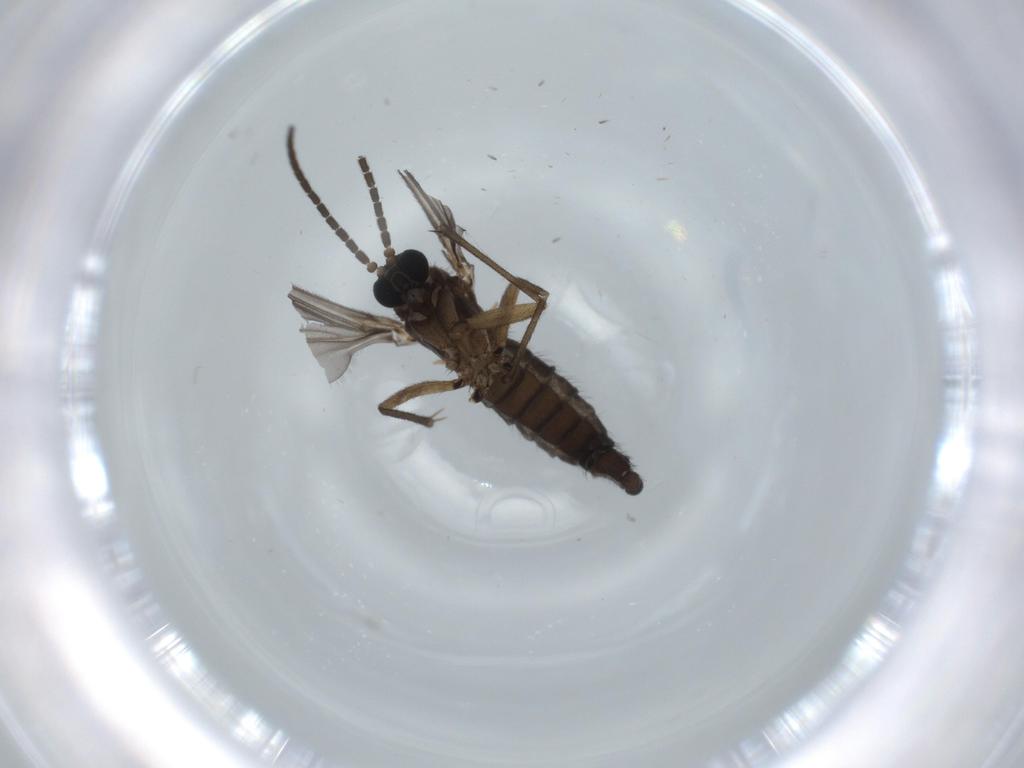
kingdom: Animalia
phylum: Arthropoda
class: Insecta
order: Diptera
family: Sciaridae
